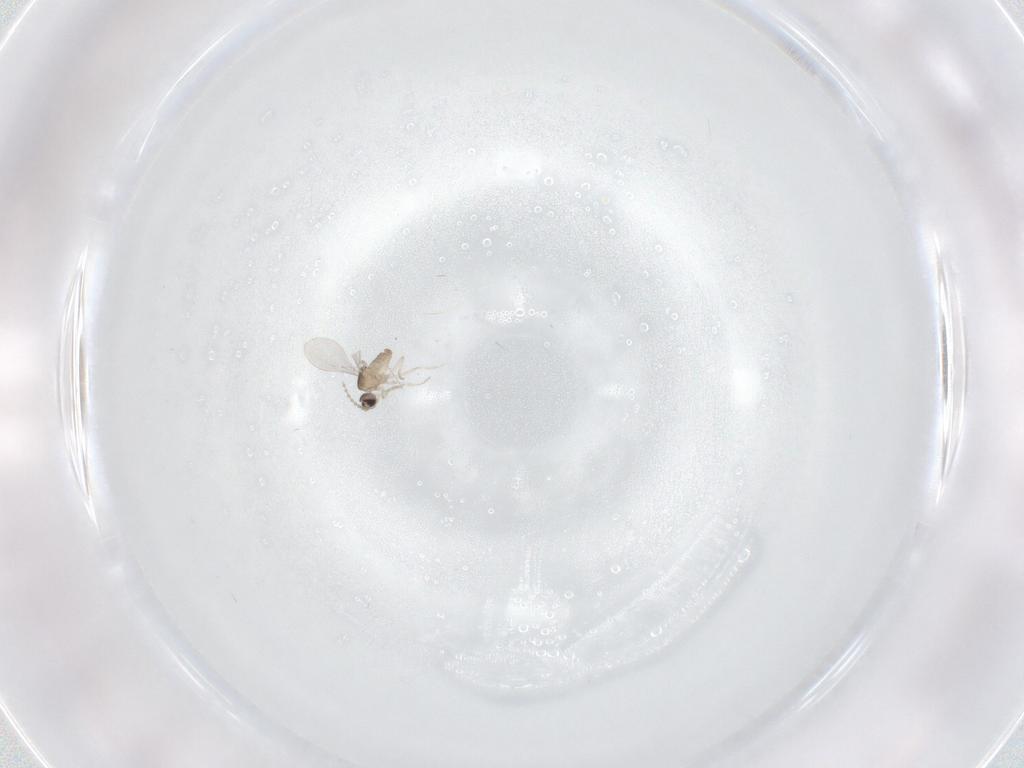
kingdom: Animalia
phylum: Arthropoda
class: Insecta
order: Diptera
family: Cecidomyiidae
